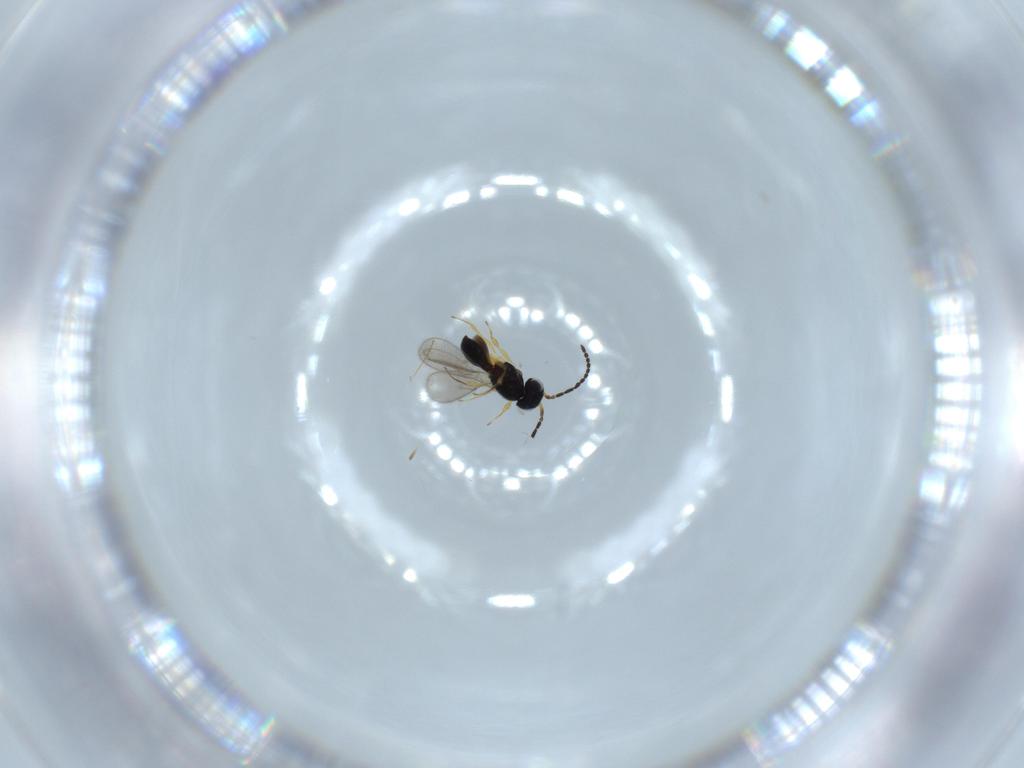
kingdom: Animalia
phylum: Arthropoda
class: Insecta
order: Hymenoptera
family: Scelionidae
